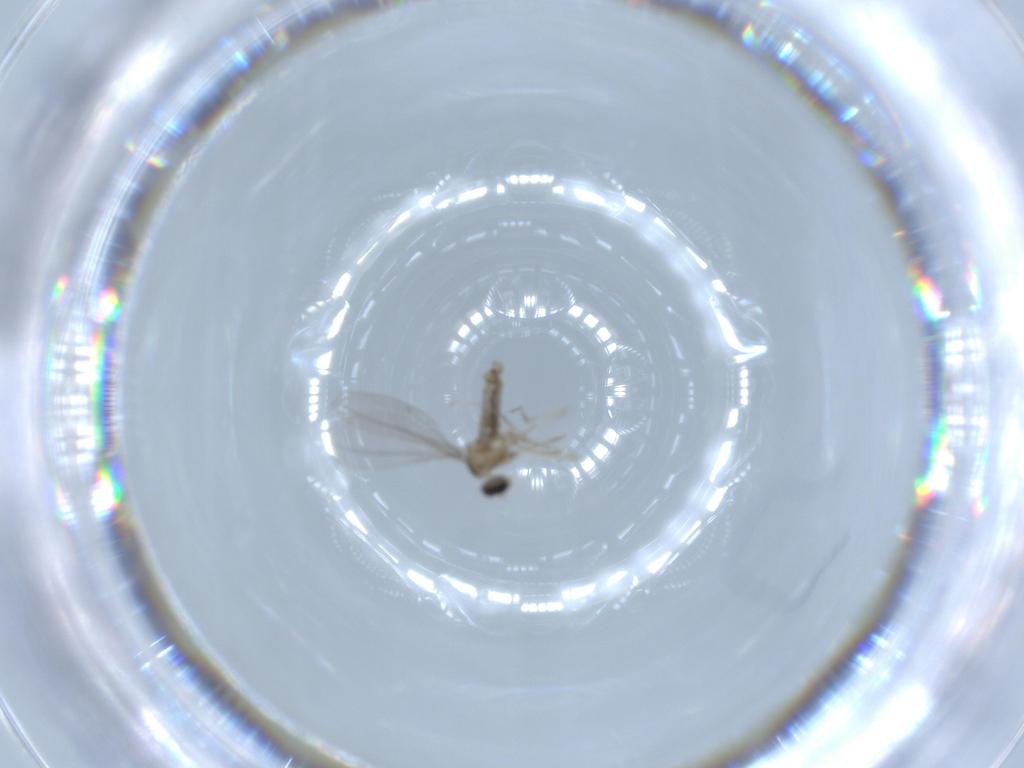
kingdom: Animalia
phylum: Arthropoda
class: Insecta
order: Diptera
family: Cecidomyiidae
